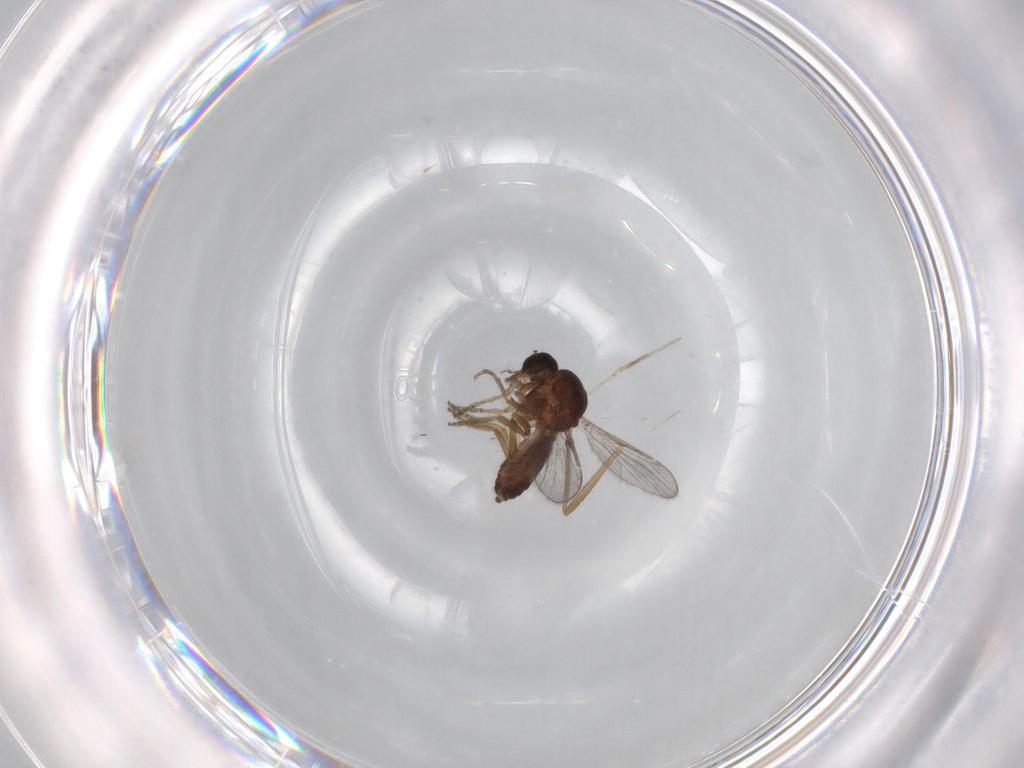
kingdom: Animalia
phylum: Arthropoda
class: Insecta
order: Diptera
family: Ceratopogonidae
